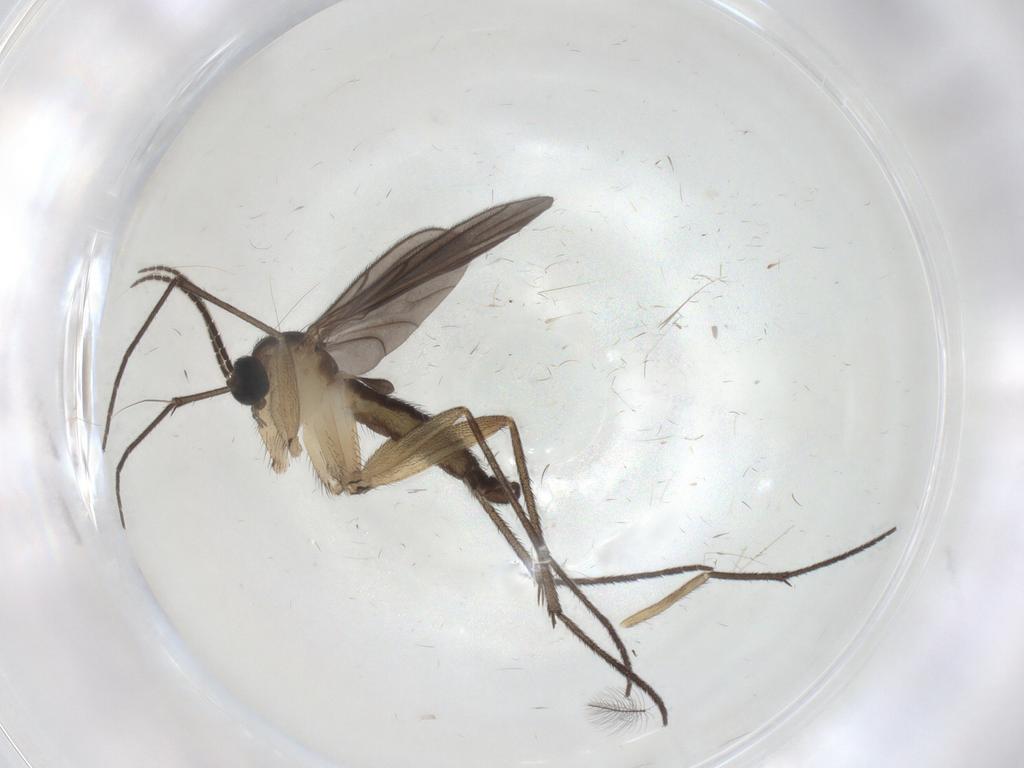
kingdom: Animalia
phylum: Arthropoda
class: Insecta
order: Diptera
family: Sciaridae
